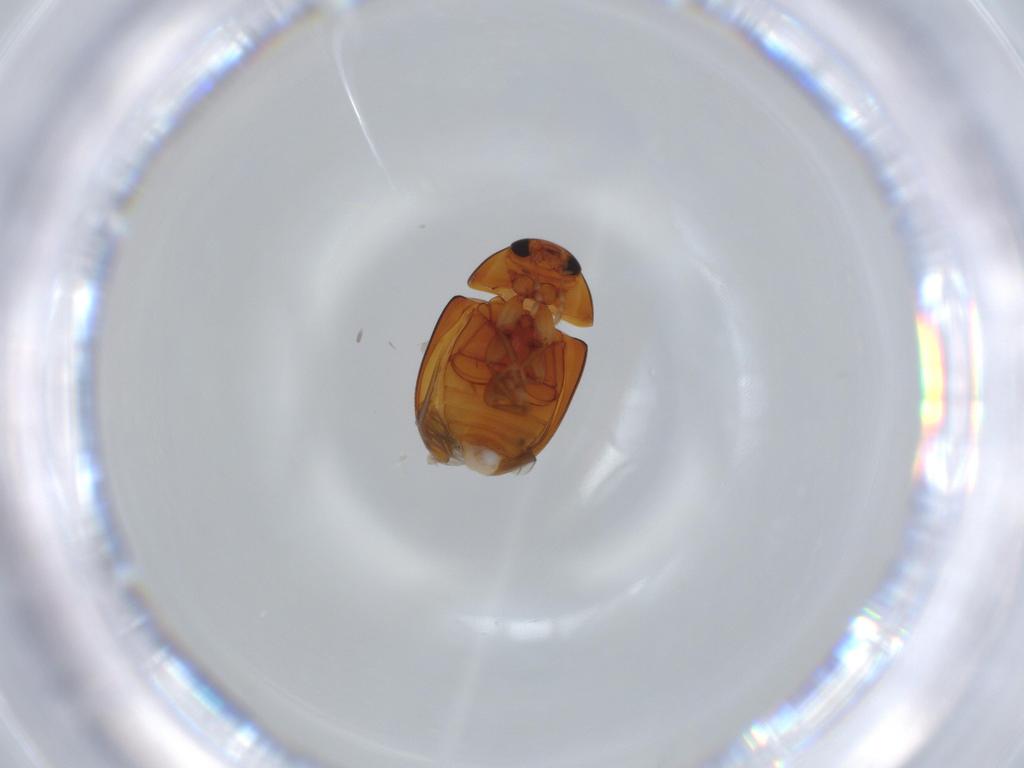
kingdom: Animalia
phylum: Arthropoda
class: Insecta
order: Coleoptera
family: Phalacridae
